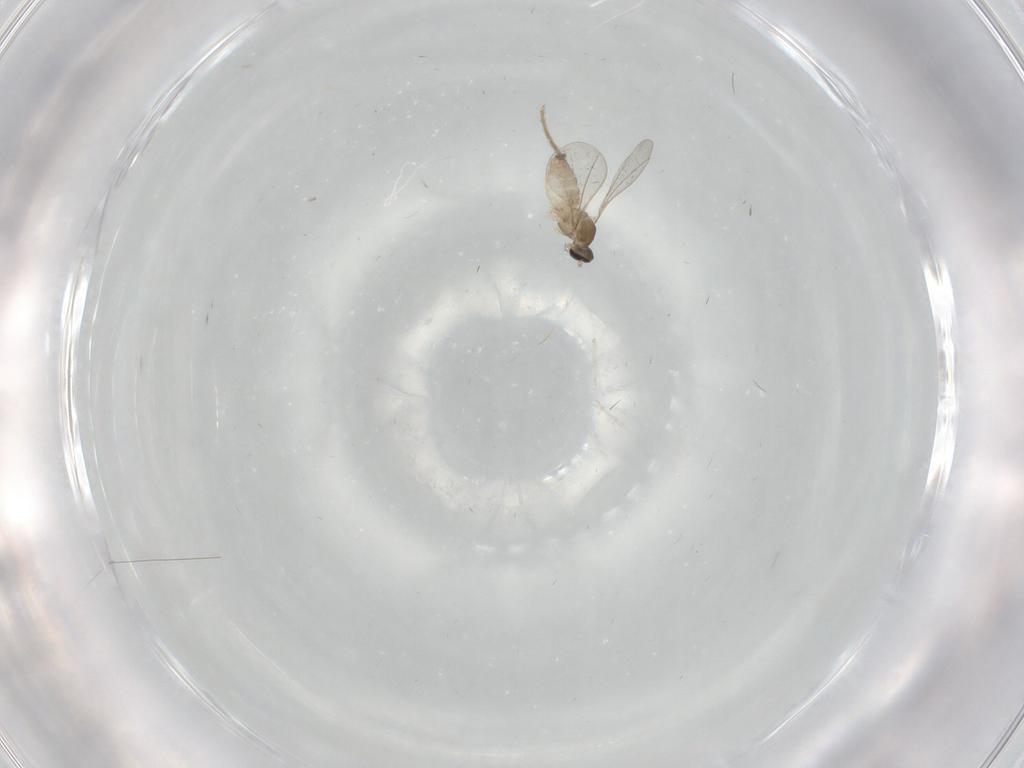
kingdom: Animalia
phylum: Arthropoda
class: Insecta
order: Diptera
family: Cecidomyiidae
